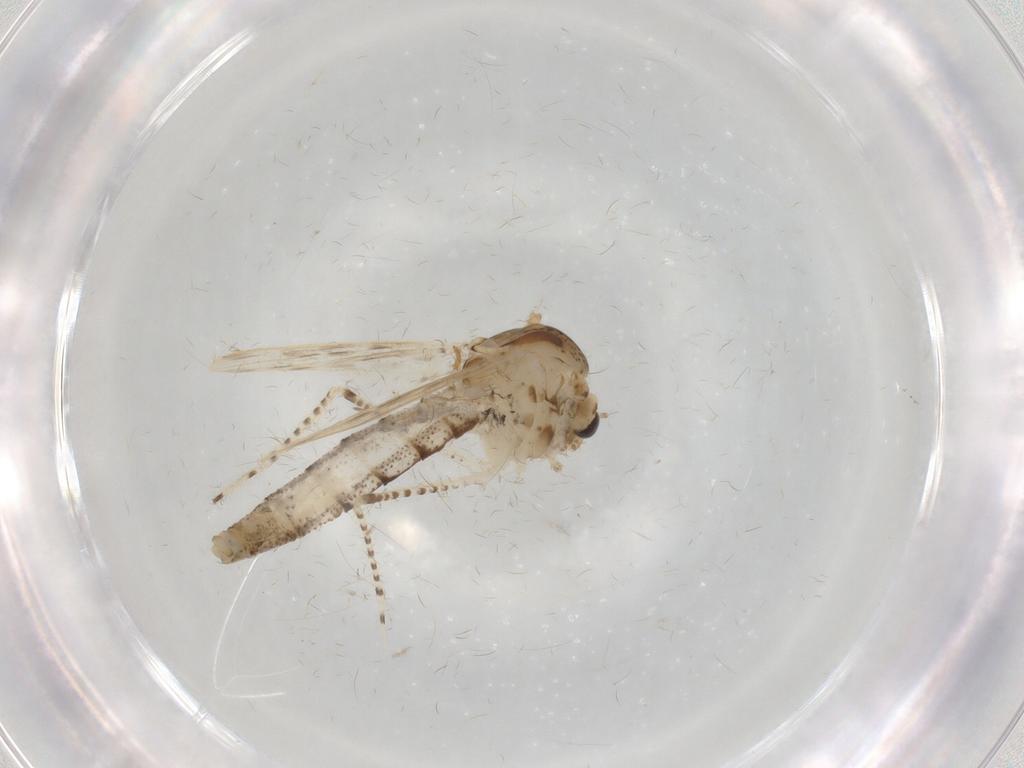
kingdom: Animalia
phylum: Arthropoda
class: Insecta
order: Diptera
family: Chaoboridae
